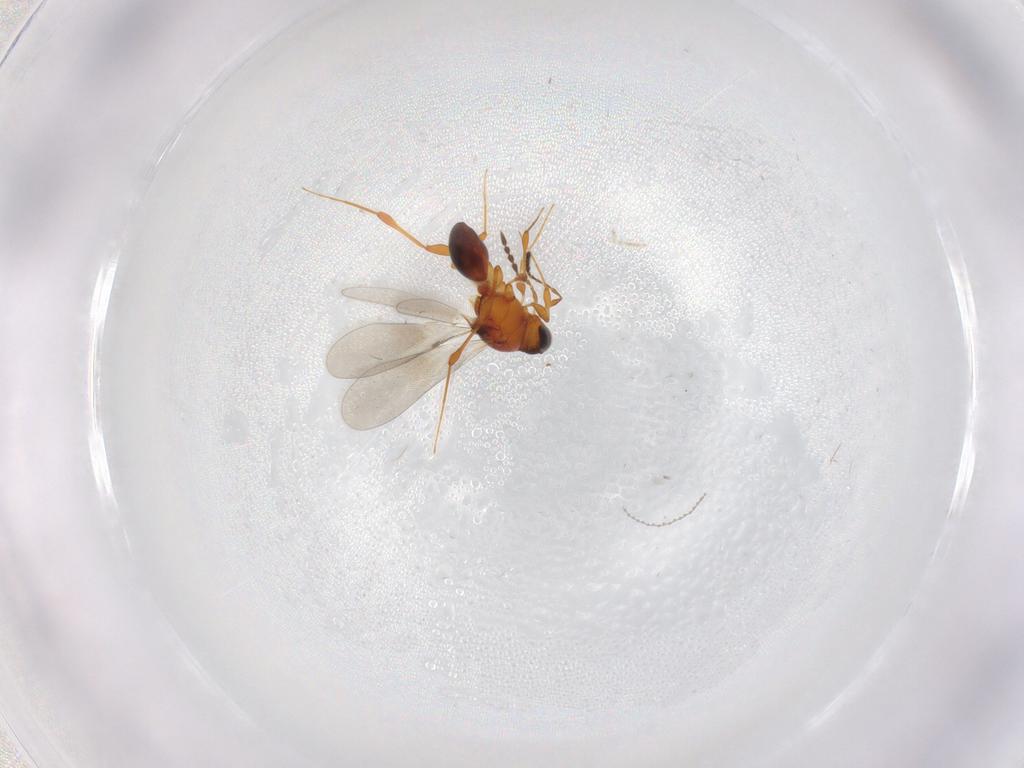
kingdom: Animalia
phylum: Arthropoda
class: Insecta
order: Hymenoptera
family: Platygastridae
